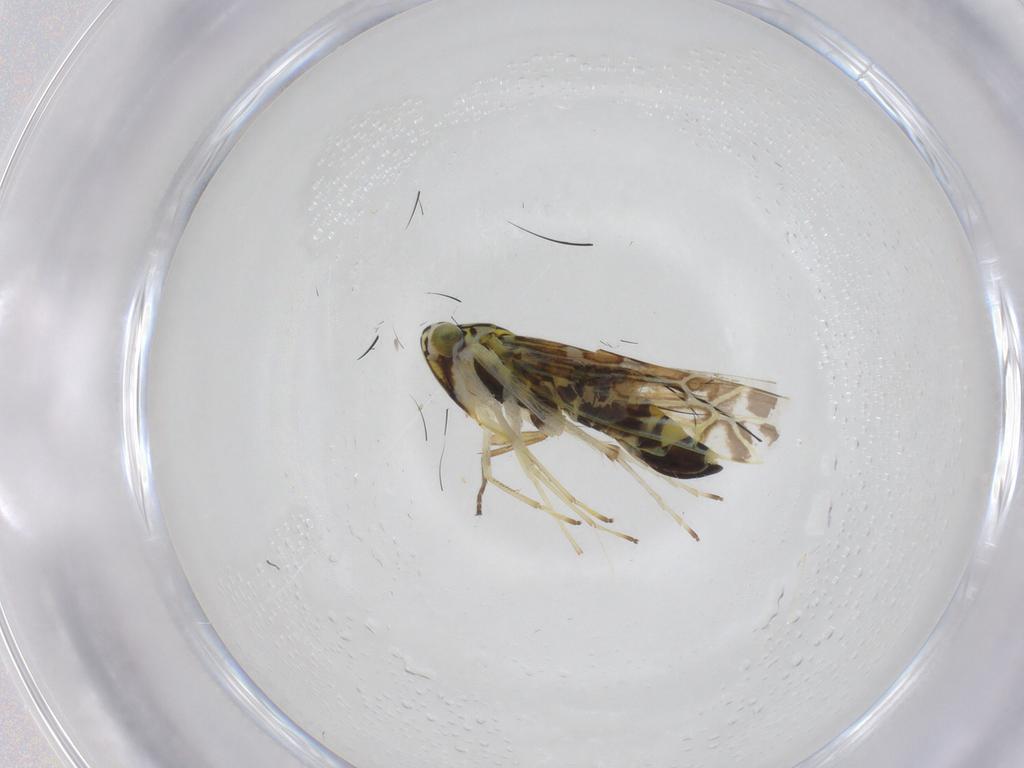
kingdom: Animalia
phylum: Arthropoda
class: Insecta
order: Hemiptera
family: Cicadellidae
